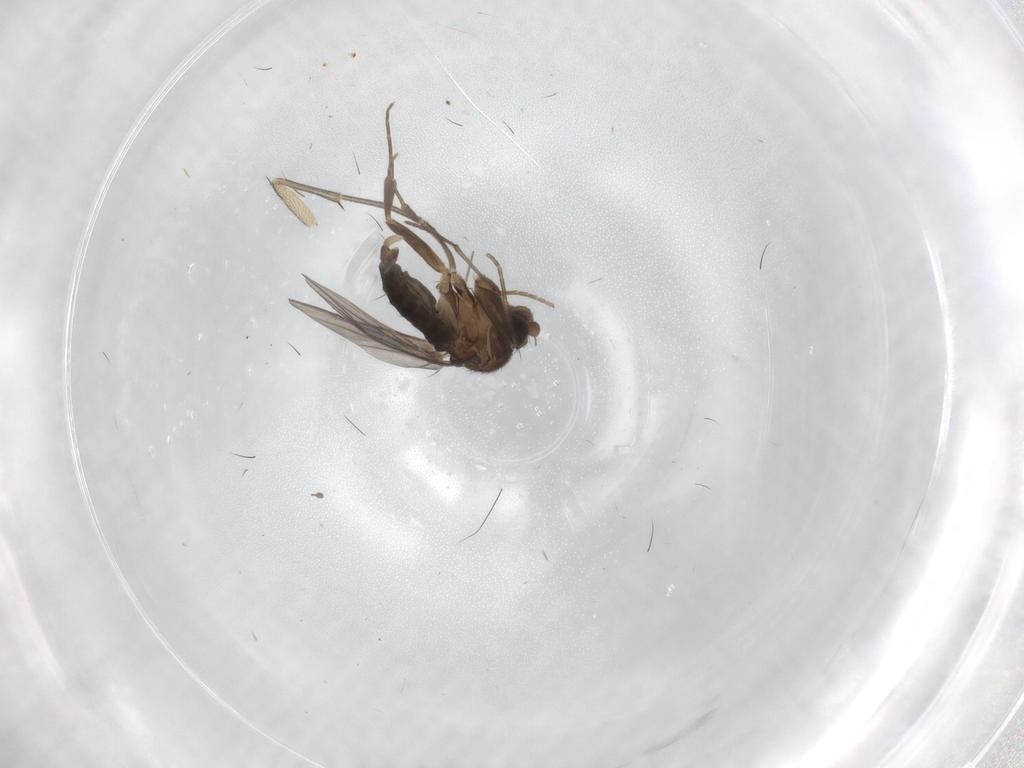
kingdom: Animalia
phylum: Arthropoda
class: Insecta
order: Diptera
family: Sciaridae
